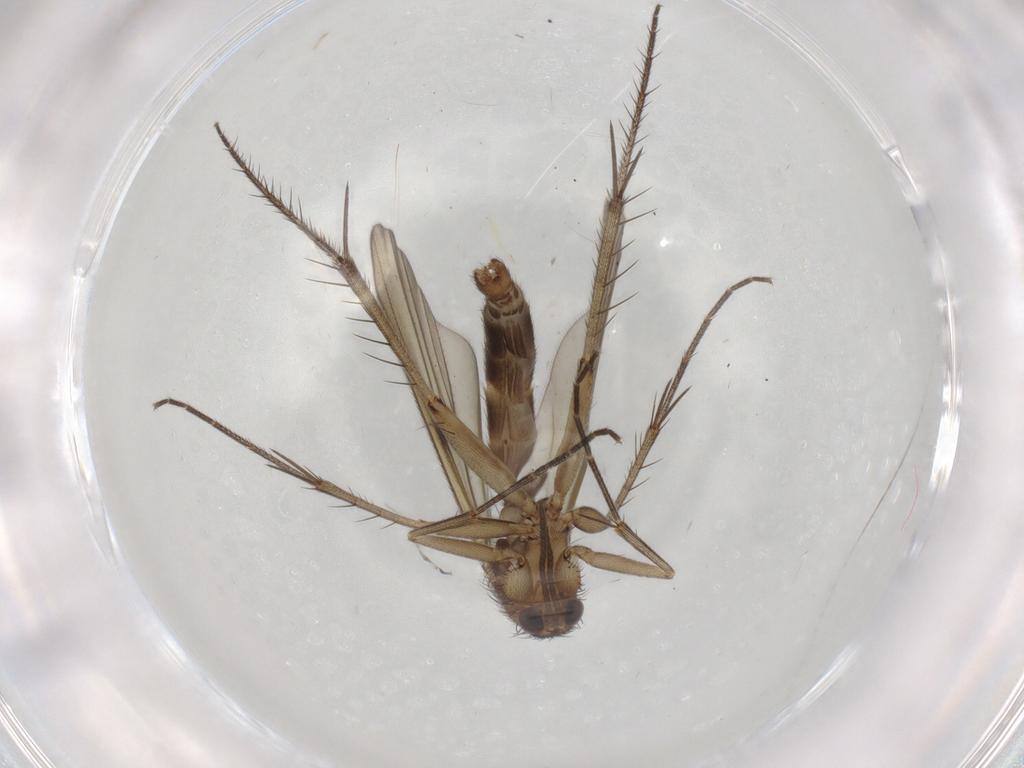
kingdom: Animalia
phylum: Arthropoda
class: Insecta
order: Diptera
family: Mycetophilidae
